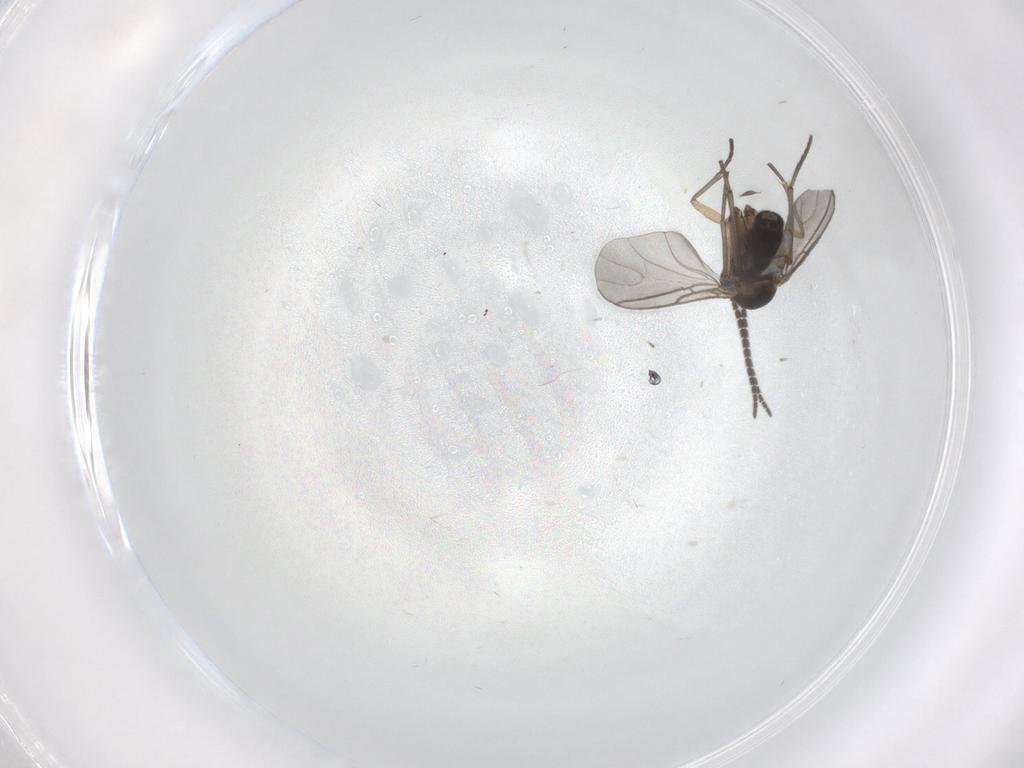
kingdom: Animalia
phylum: Arthropoda
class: Insecta
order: Diptera
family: Sciaridae
